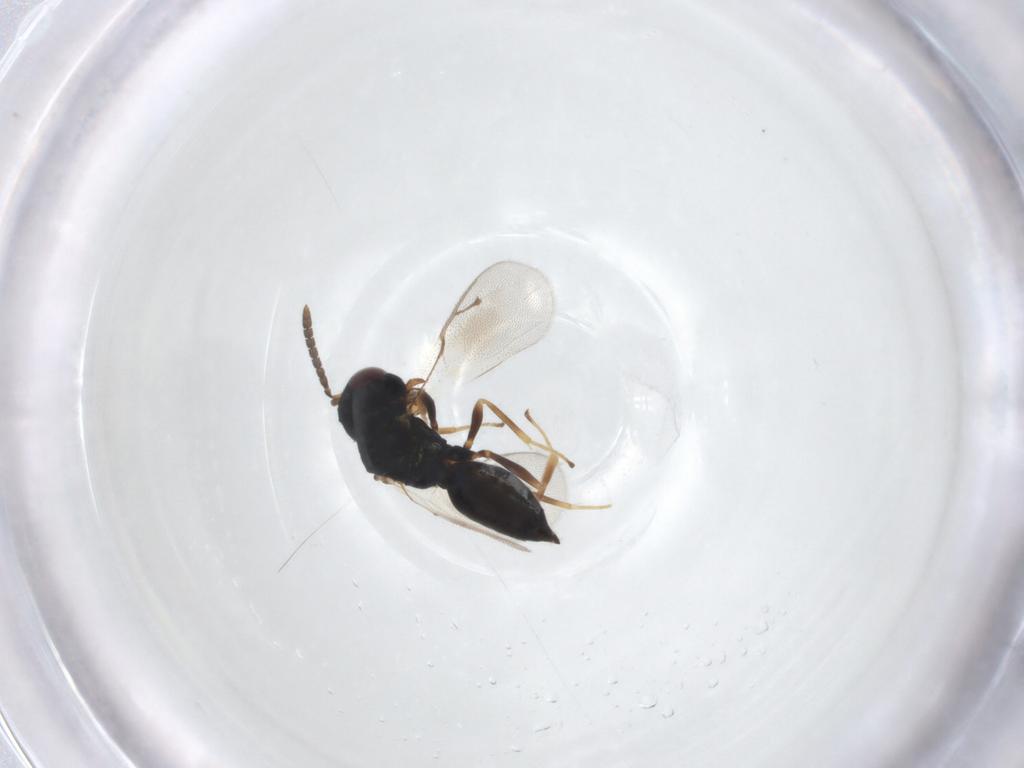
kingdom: Animalia
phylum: Arthropoda
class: Insecta
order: Hymenoptera
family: Pteromalidae
